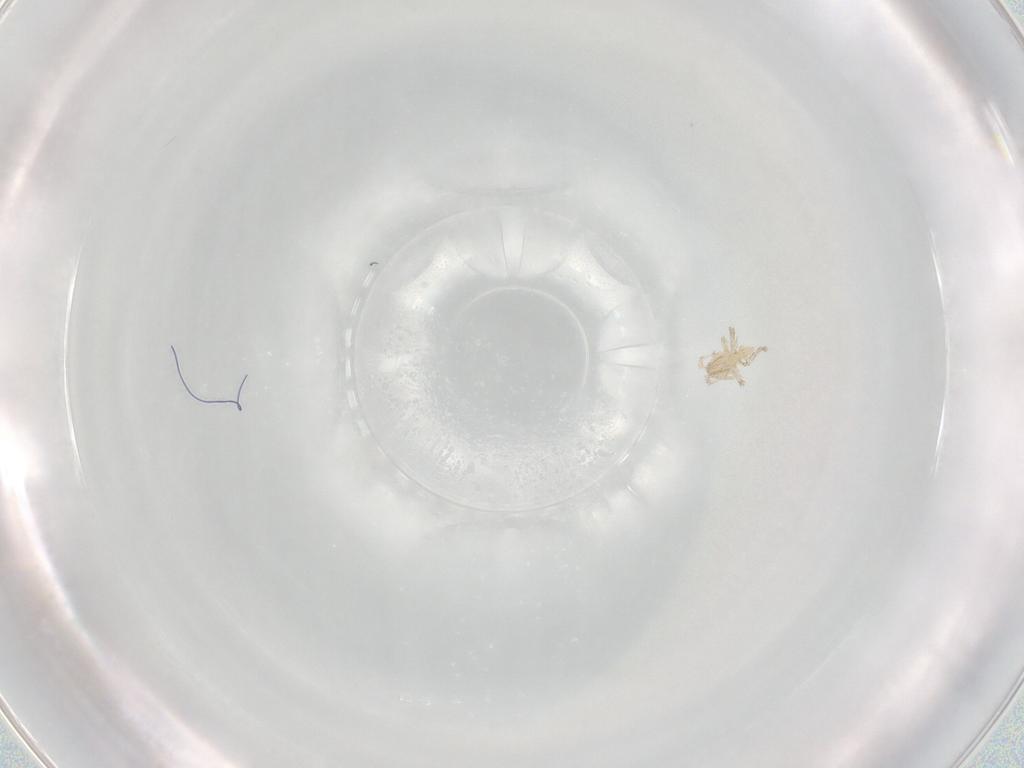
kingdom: Animalia
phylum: Arthropoda
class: Arachnida
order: Trombidiformes
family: Erythraeidae
